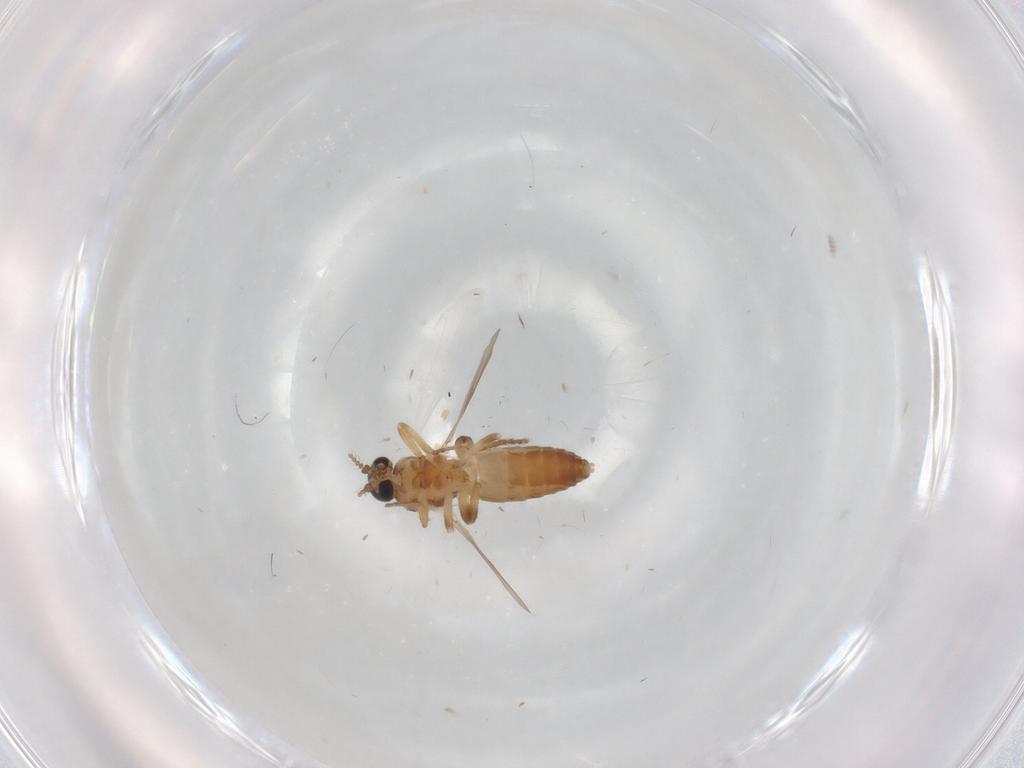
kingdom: Animalia
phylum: Arthropoda
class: Insecta
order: Diptera
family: Ceratopogonidae
